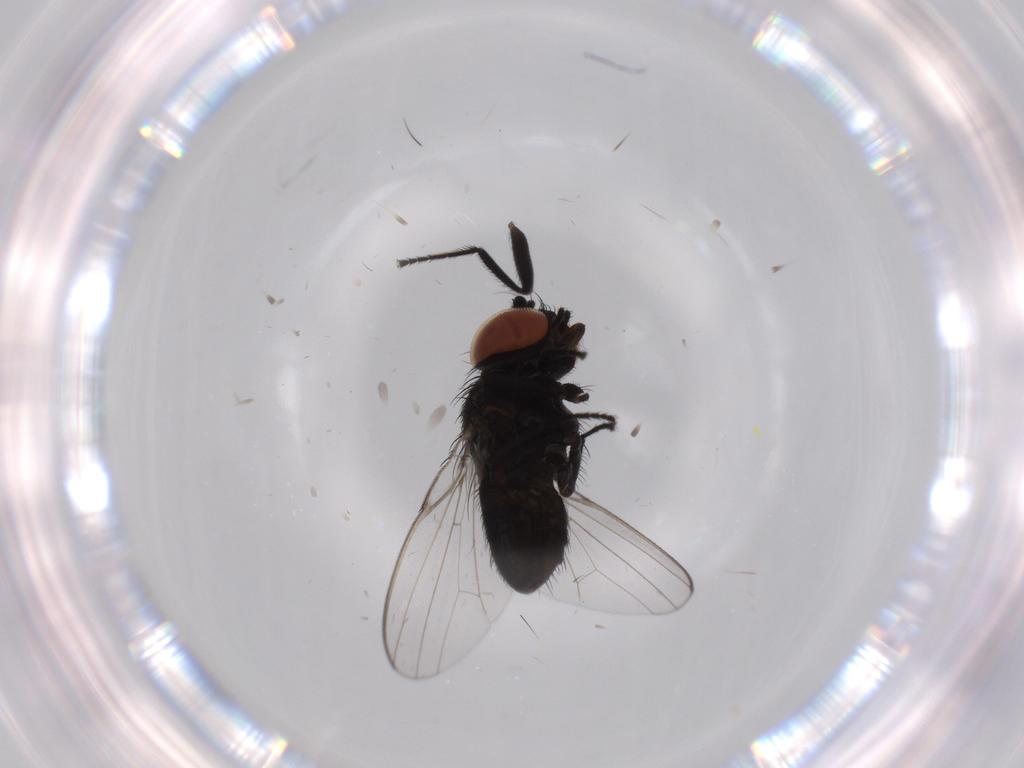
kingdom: Animalia
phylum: Arthropoda
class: Insecta
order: Diptera
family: Milichiidae
